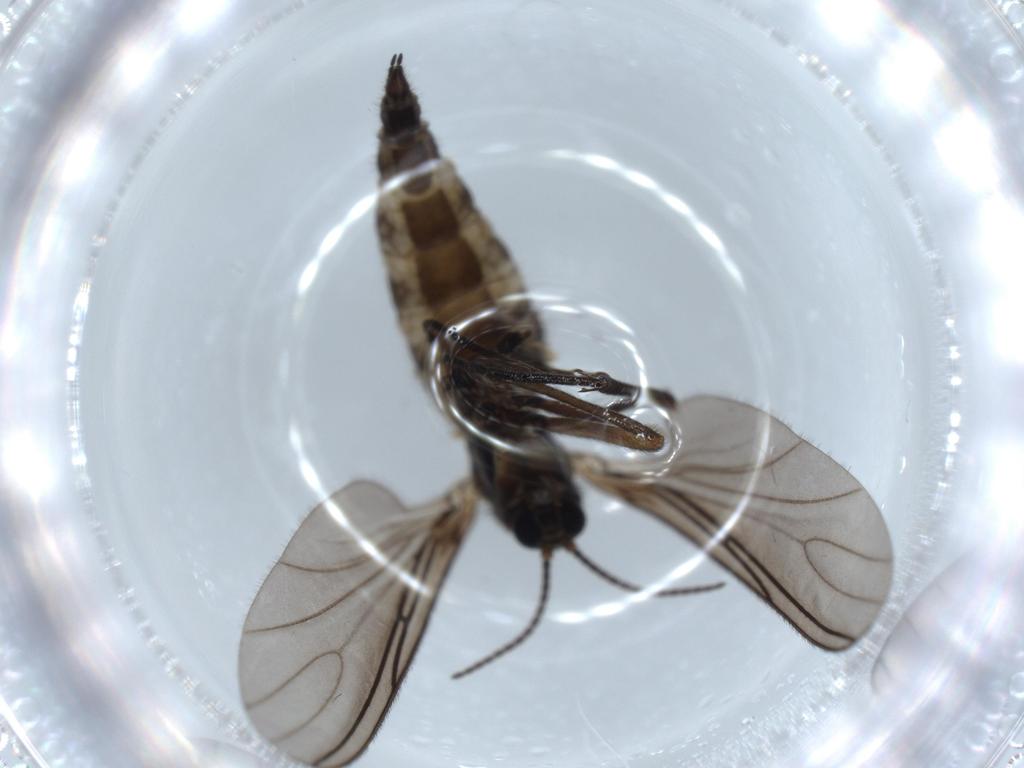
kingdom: Animalia
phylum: Arthropoda
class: Insecta
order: Diptera
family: Sciaridae
